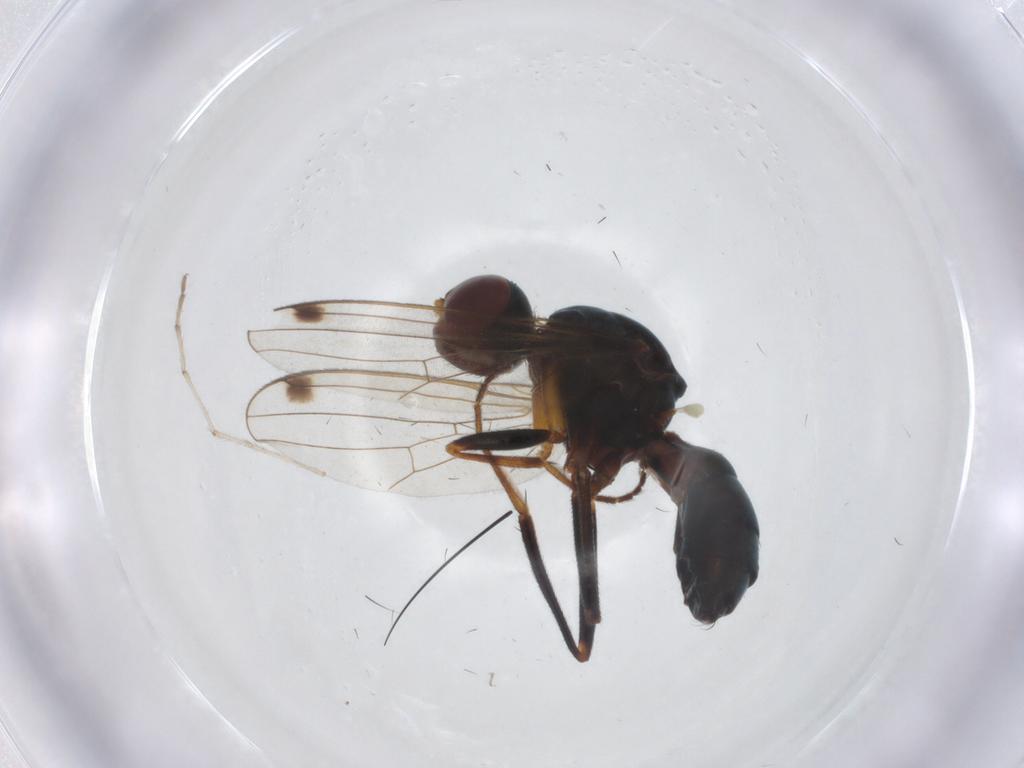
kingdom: Animalia
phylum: Arthropoda
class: Insecta
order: Diptera
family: Sepsidae
